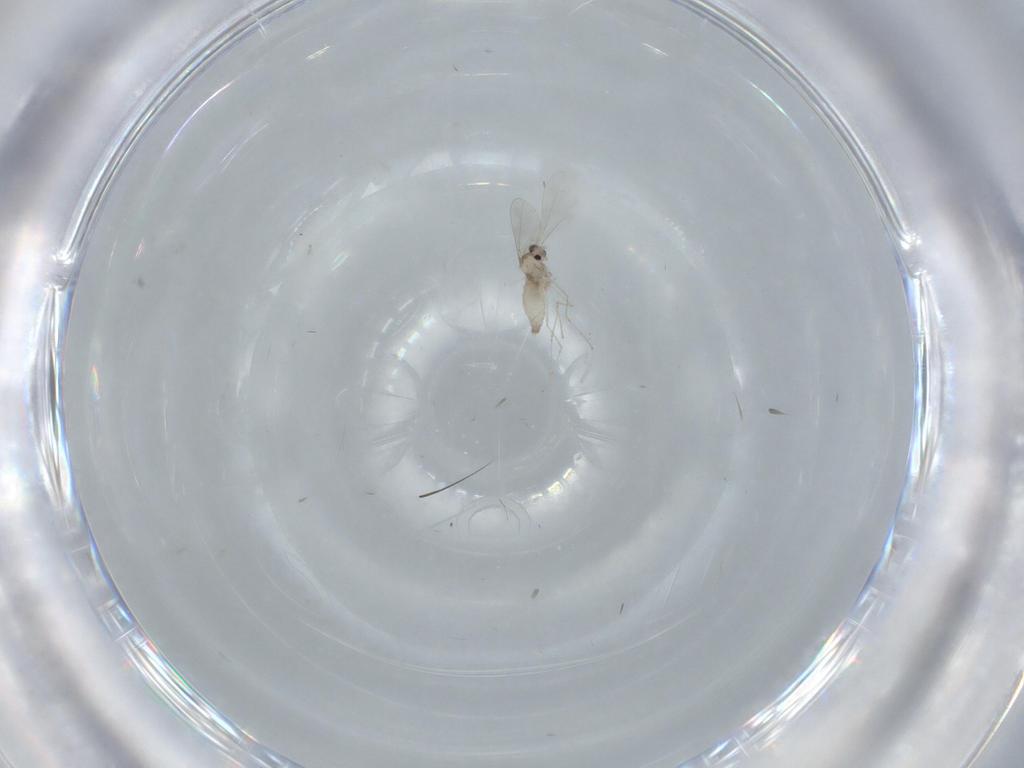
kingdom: Animalia
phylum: Arthropoda
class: Insecta
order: Diptera
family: Cecidomyiidae
